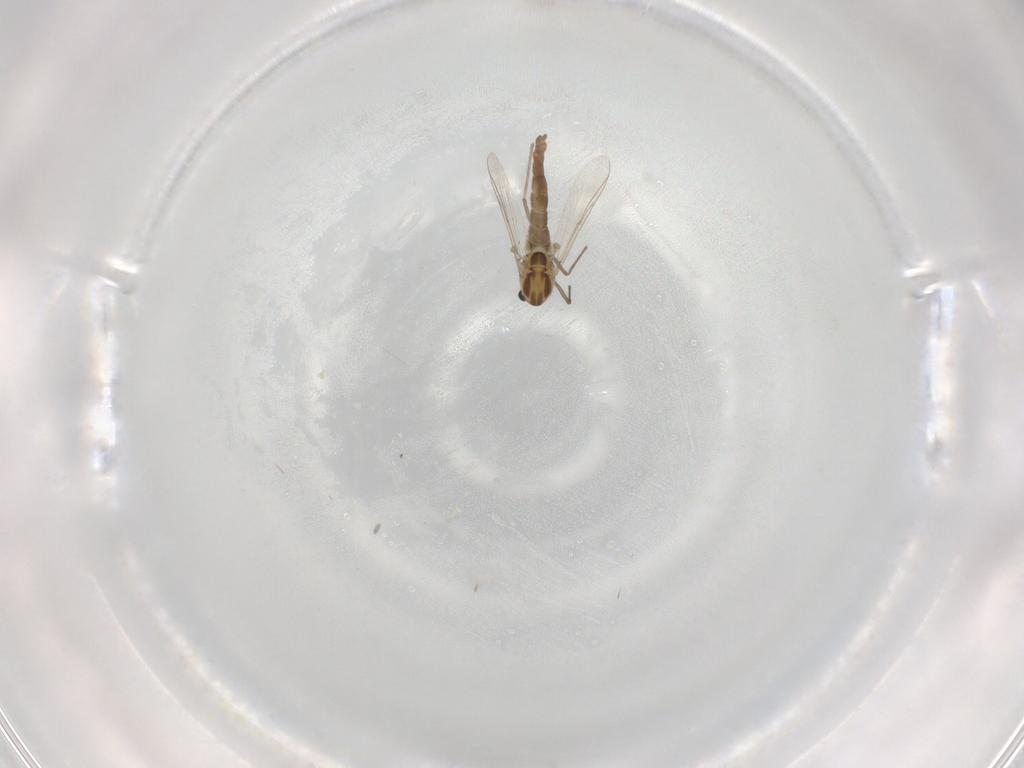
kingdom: Animalia
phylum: Arthropoda
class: Insecta
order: Diptera
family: Chironomidae
